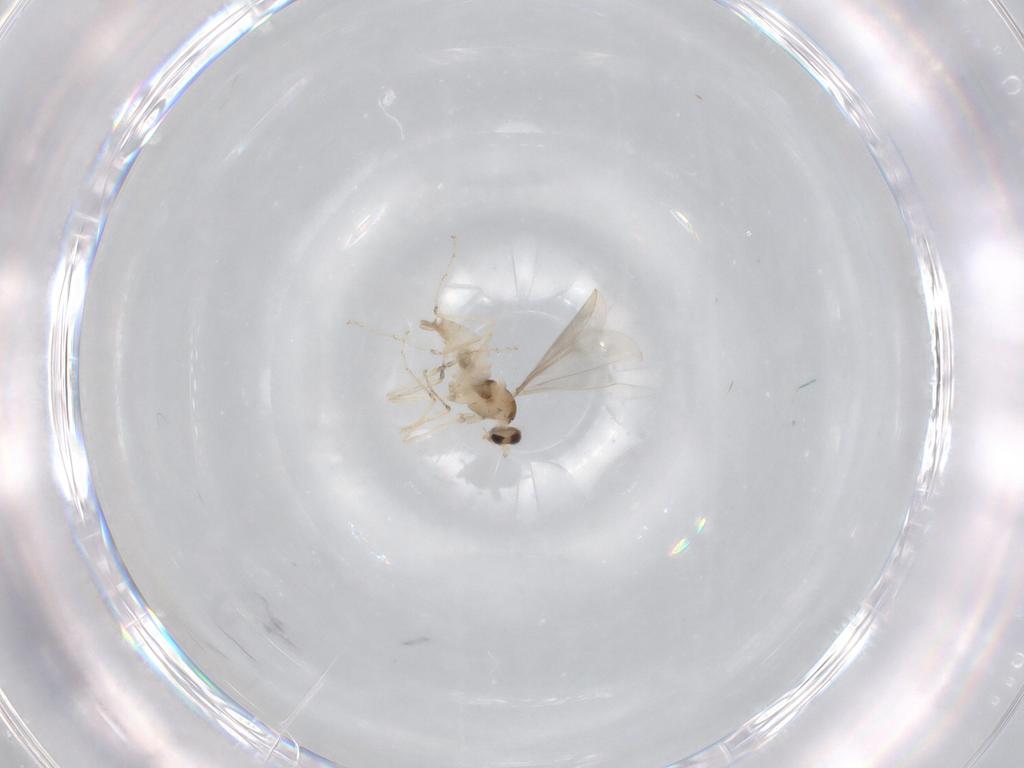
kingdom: Animalia
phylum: Arthropoda
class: Insecta
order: Diptera
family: Phoridae
